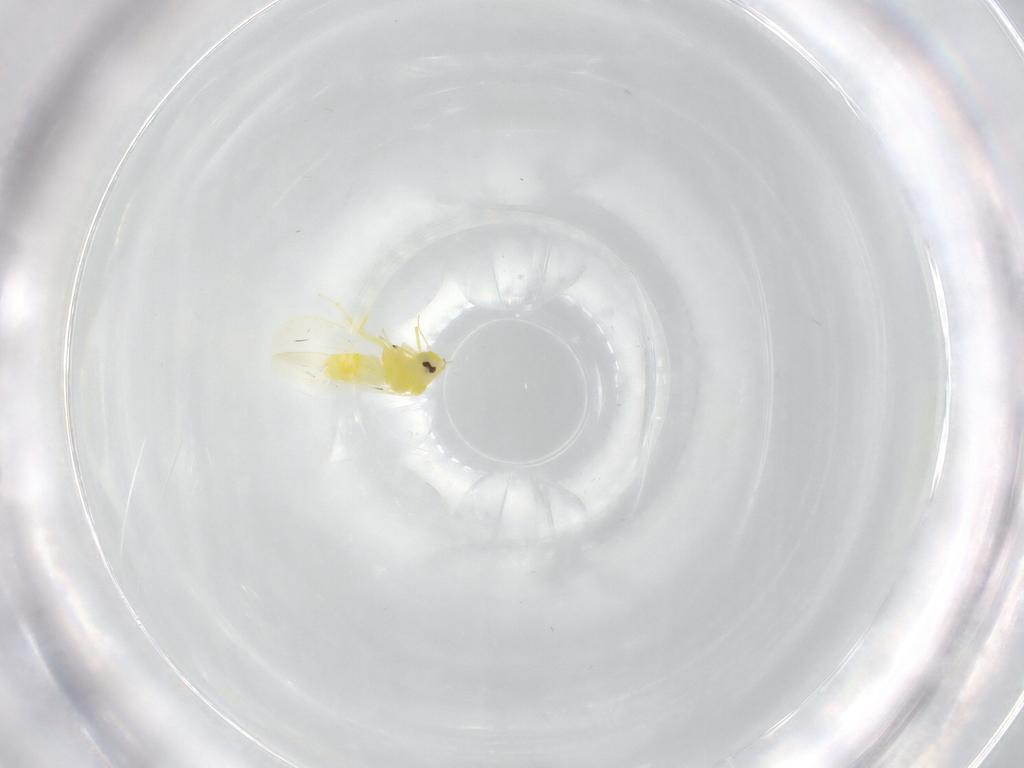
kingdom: Animalia
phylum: Arthropoda
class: Insecta
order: Hemiptera
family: Aleyrodidae
